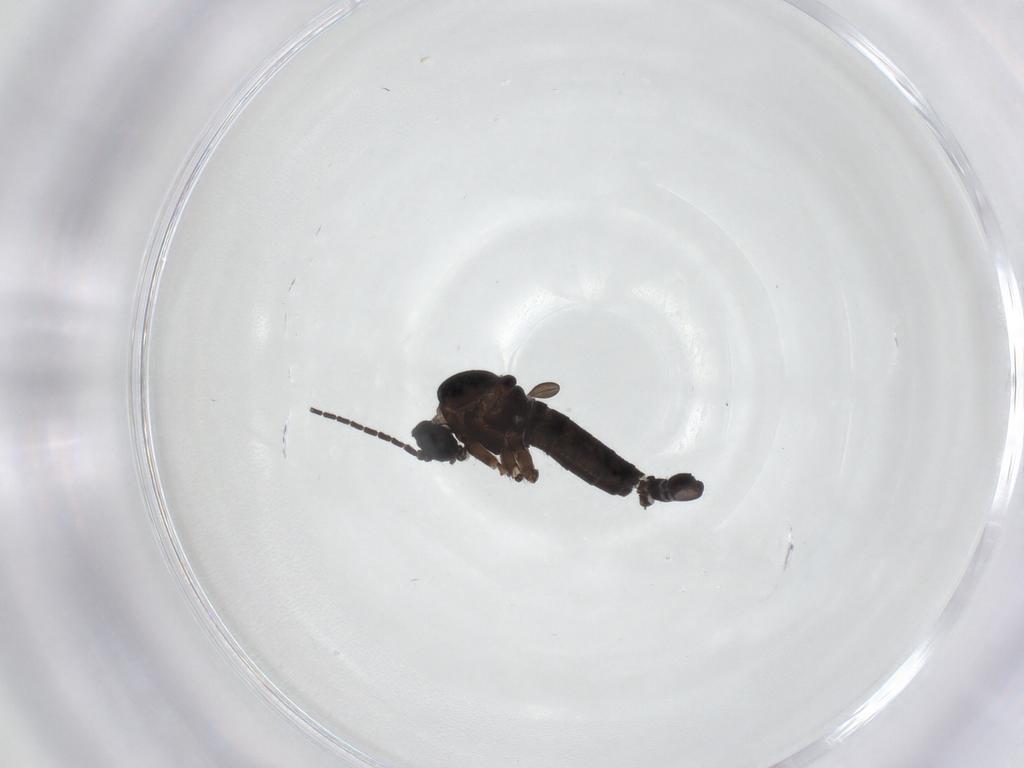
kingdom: Animalia
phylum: Arthropoda
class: Insecta
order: Diptera
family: Sciaridae
